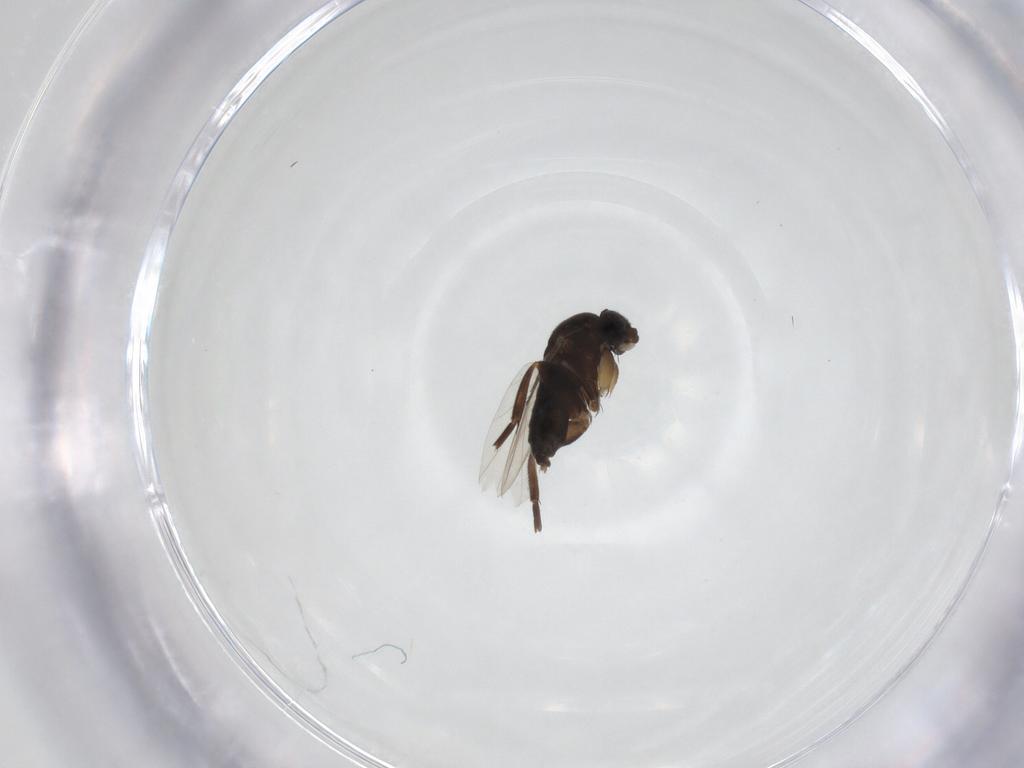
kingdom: Animalia
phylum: Arthropoda
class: Insecta
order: Diptera
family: Phoridae
